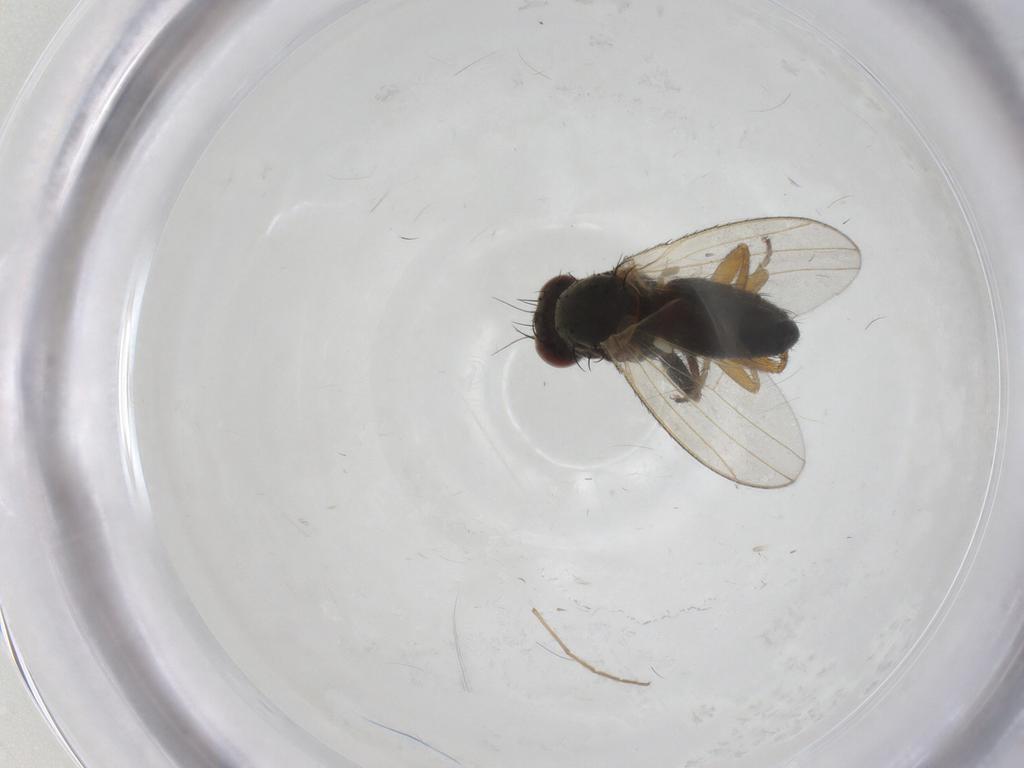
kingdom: Animalia
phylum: Arthropoda
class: Insecta
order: Diptera
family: Heleomyzidae
